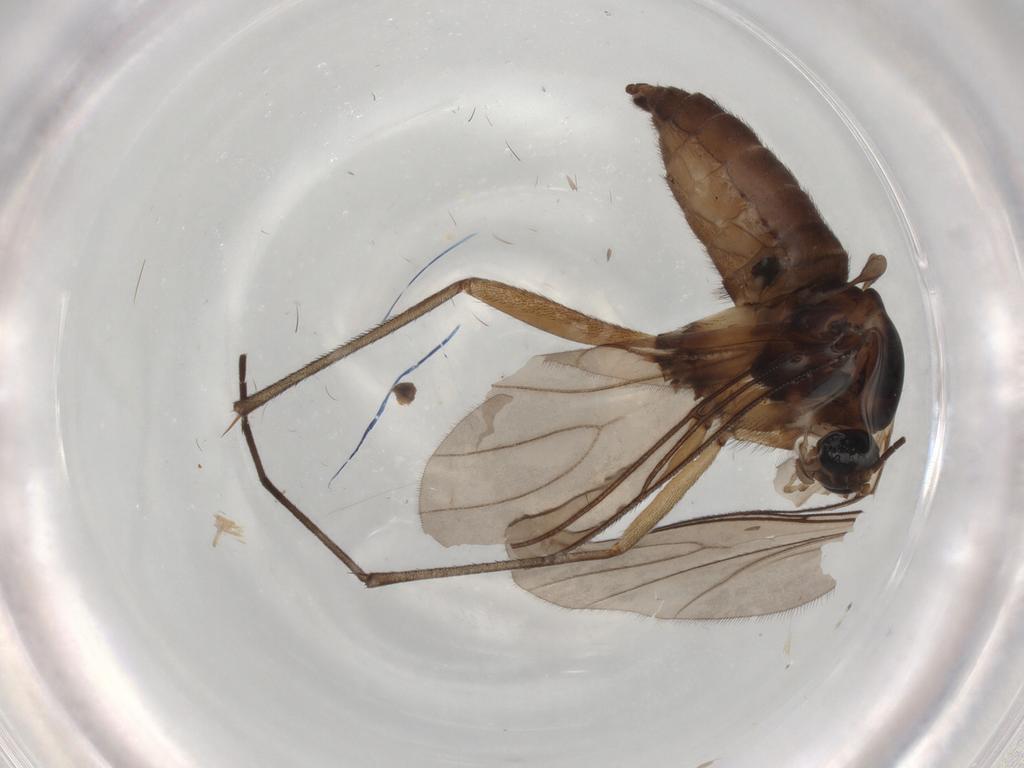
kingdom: Animalia
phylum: Arthropoda
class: Insecta
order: Diptera
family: Sciaridae
